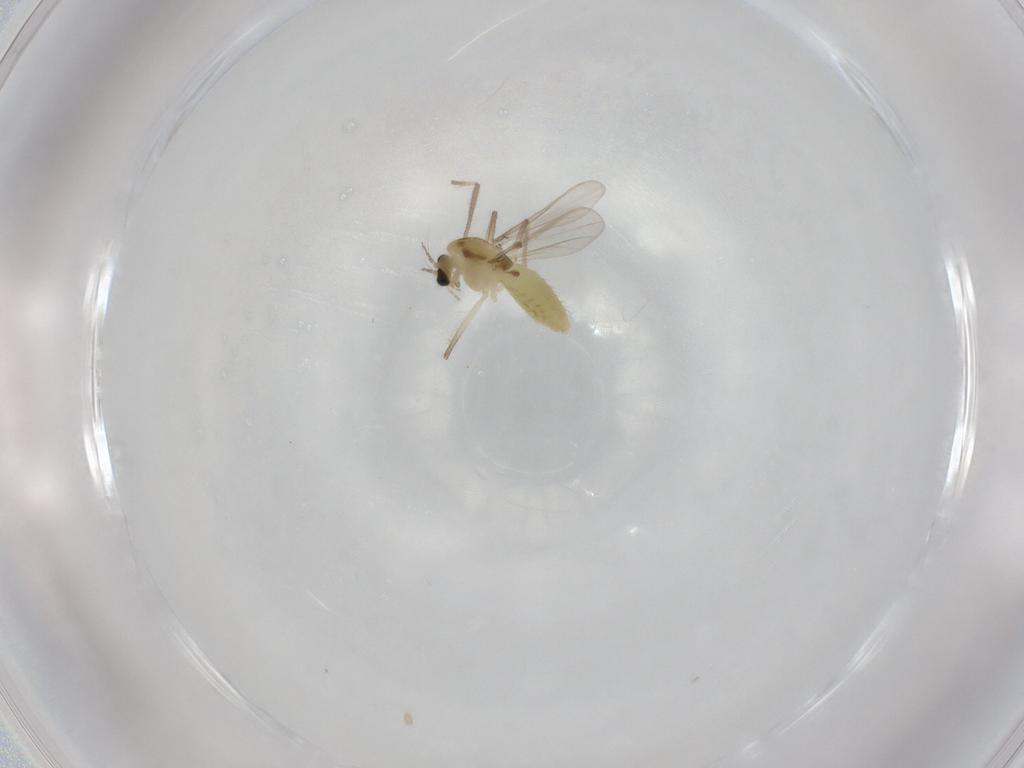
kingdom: Animalia
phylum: Arthropoda
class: Insecta
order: Diptera
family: Chironomidae
